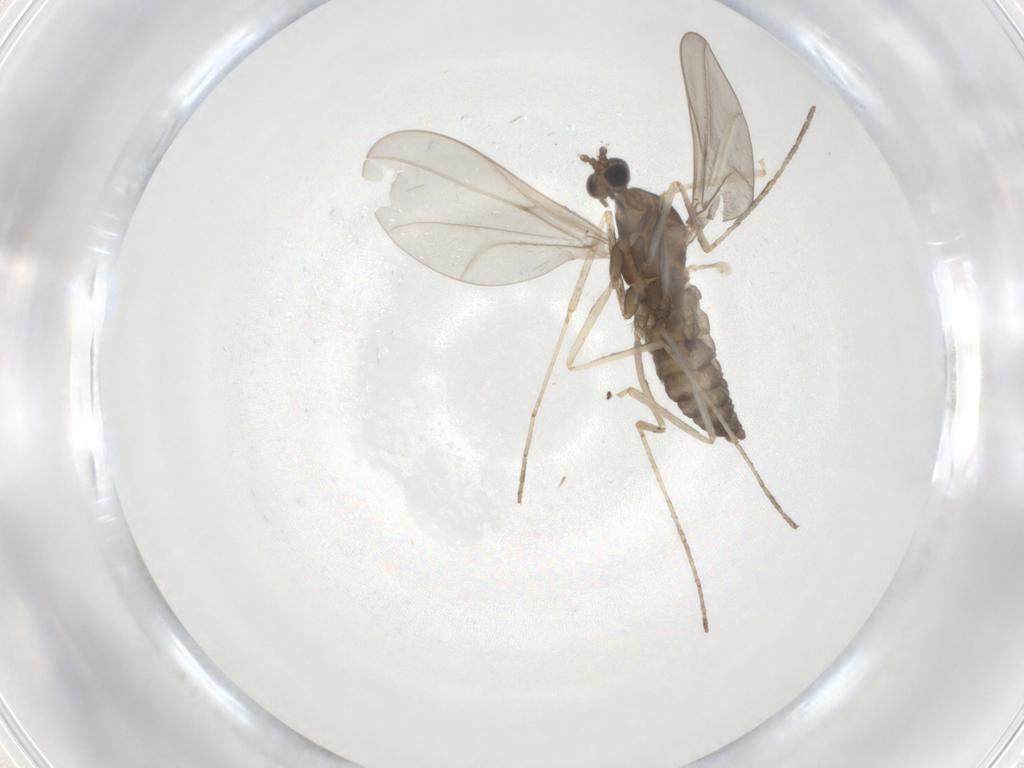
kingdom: Animalia
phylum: Arthropoda
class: Insecta
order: Diptera
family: Cecidomyiidae
